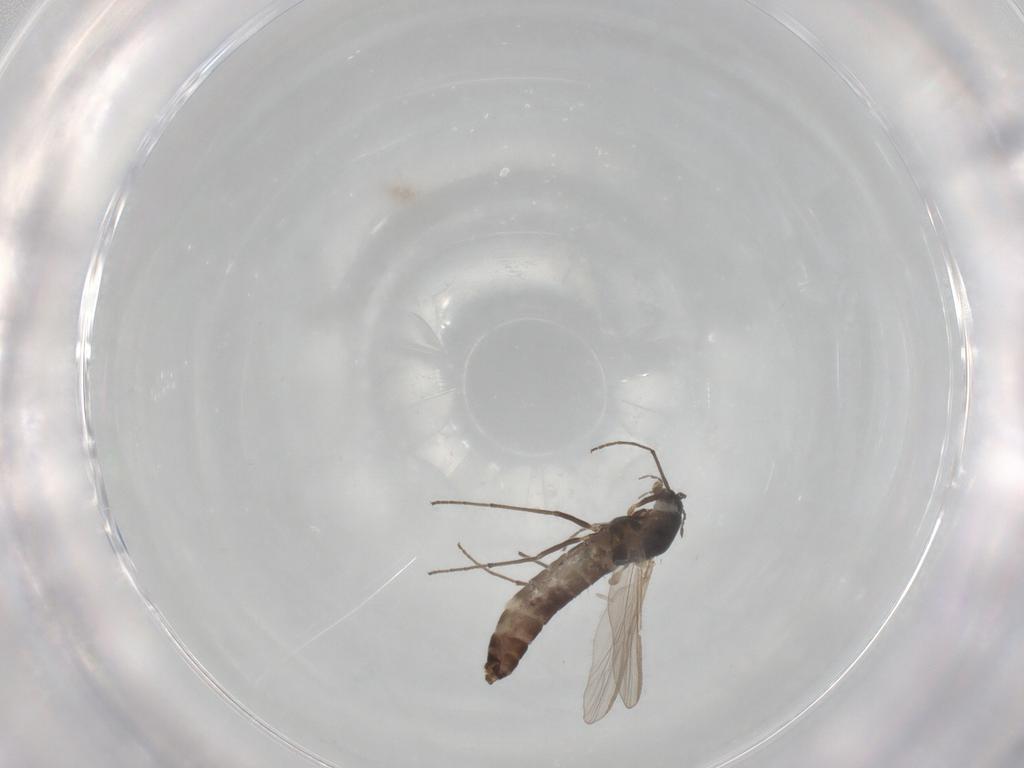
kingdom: Animalia
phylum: Arthropoda
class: Insecta
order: Diptera
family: Chironomidae
